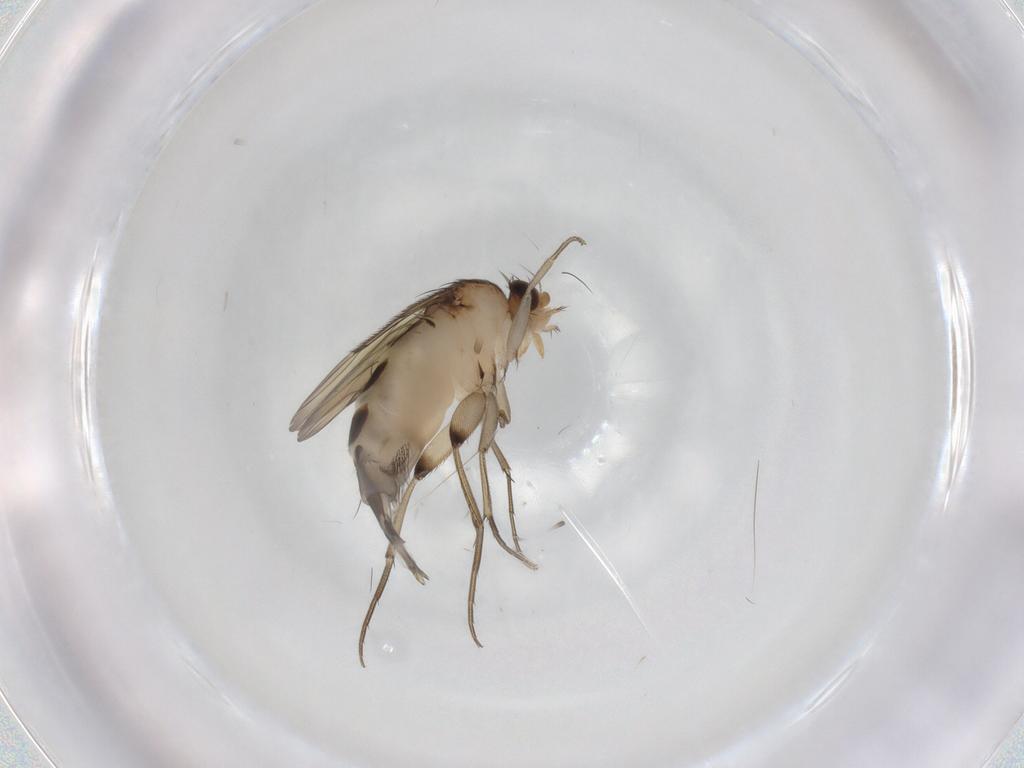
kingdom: Animalia
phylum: Arthropoda
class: Insecta
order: Diptera
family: Phoridae
